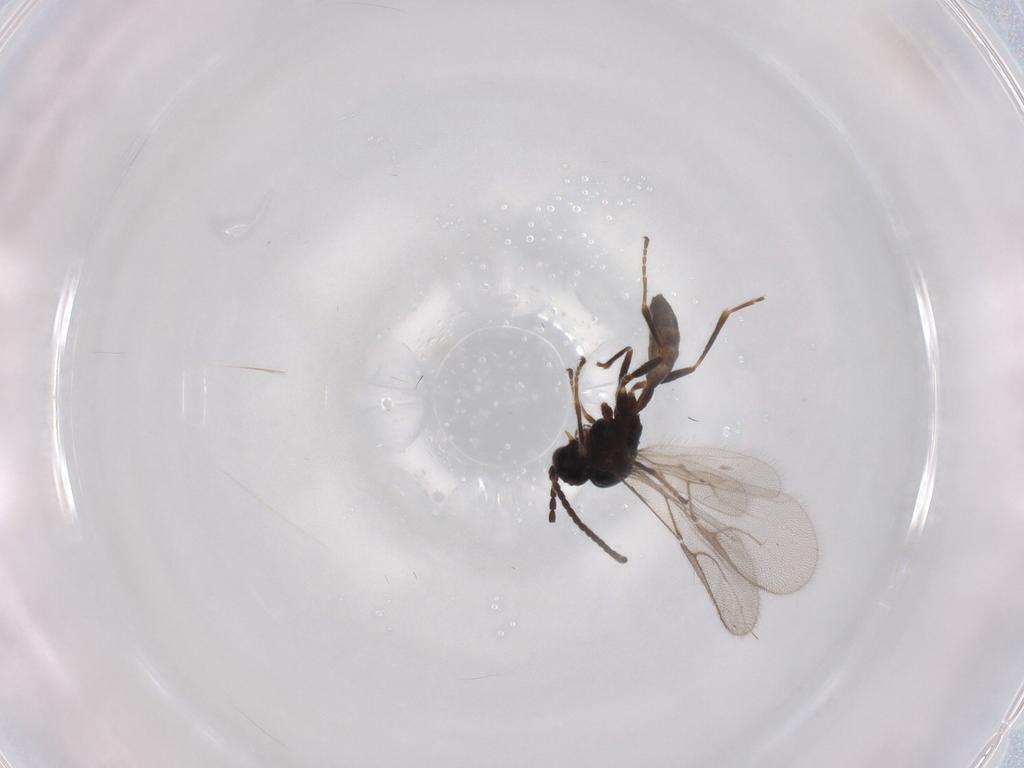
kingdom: Animalia
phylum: Arthropoda
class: Insecta
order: Hymenoptera
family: Braconidae
